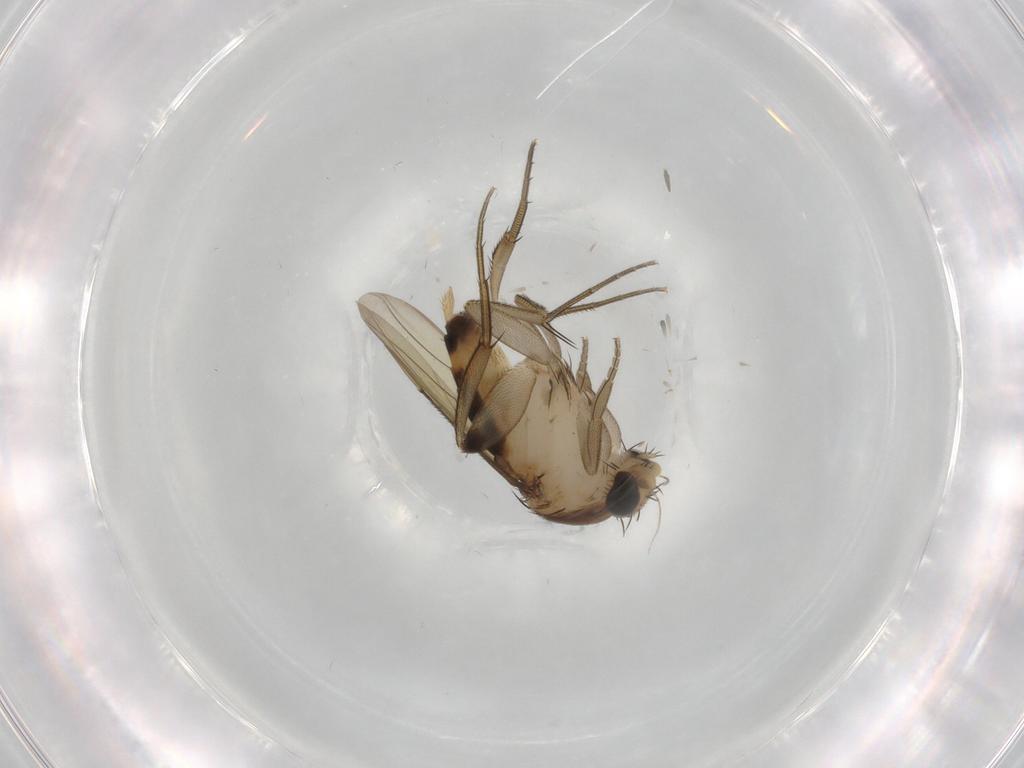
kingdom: Animalia
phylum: Arthropoda
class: Insecta
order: Diptera
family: Phoridae
